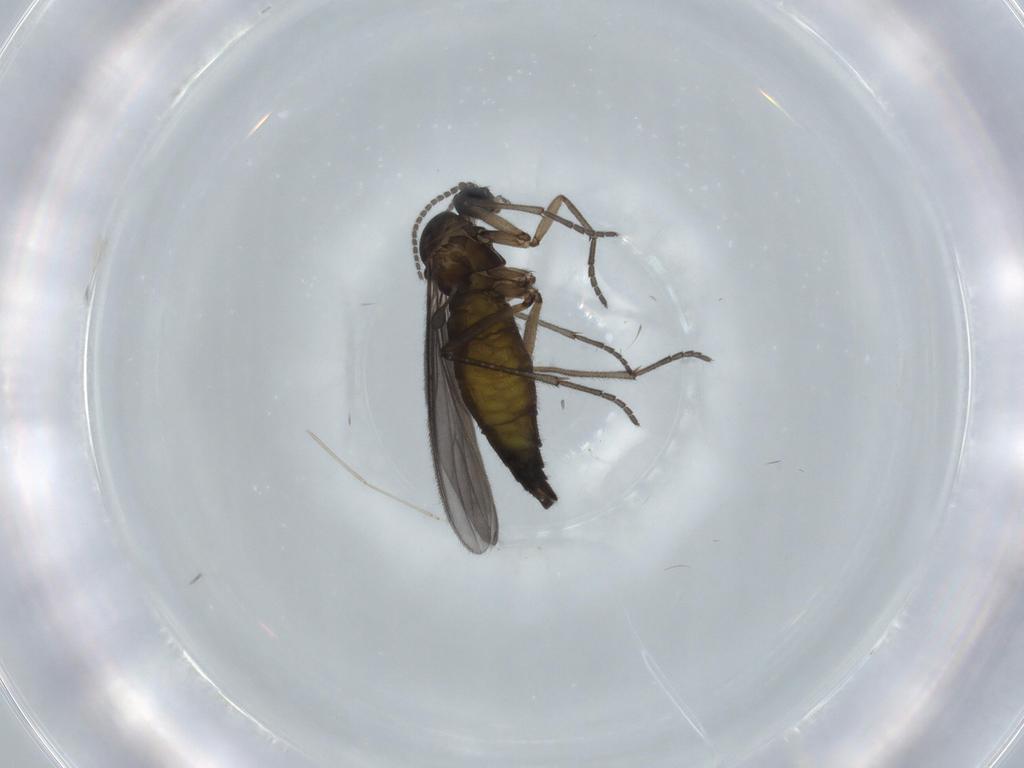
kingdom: Animalia
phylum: Arthropoda
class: Insecta
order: Diptera
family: Sciaridae
